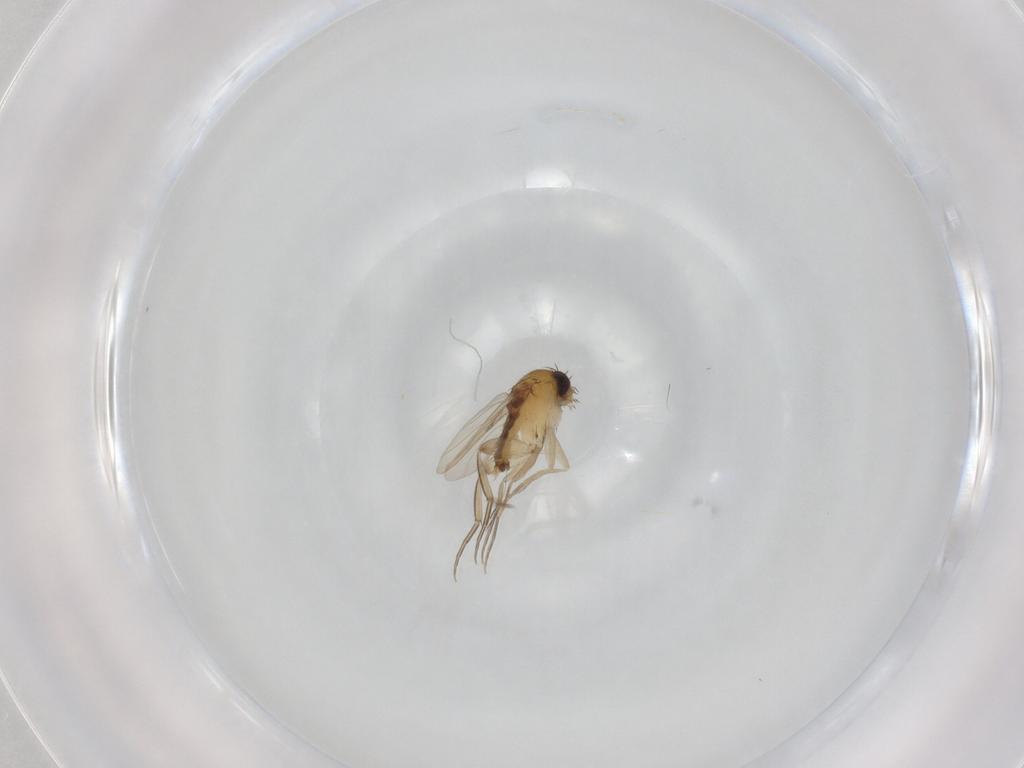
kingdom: Animalia
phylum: Arthropoda
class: Insecta
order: Diptera
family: Phoridae
